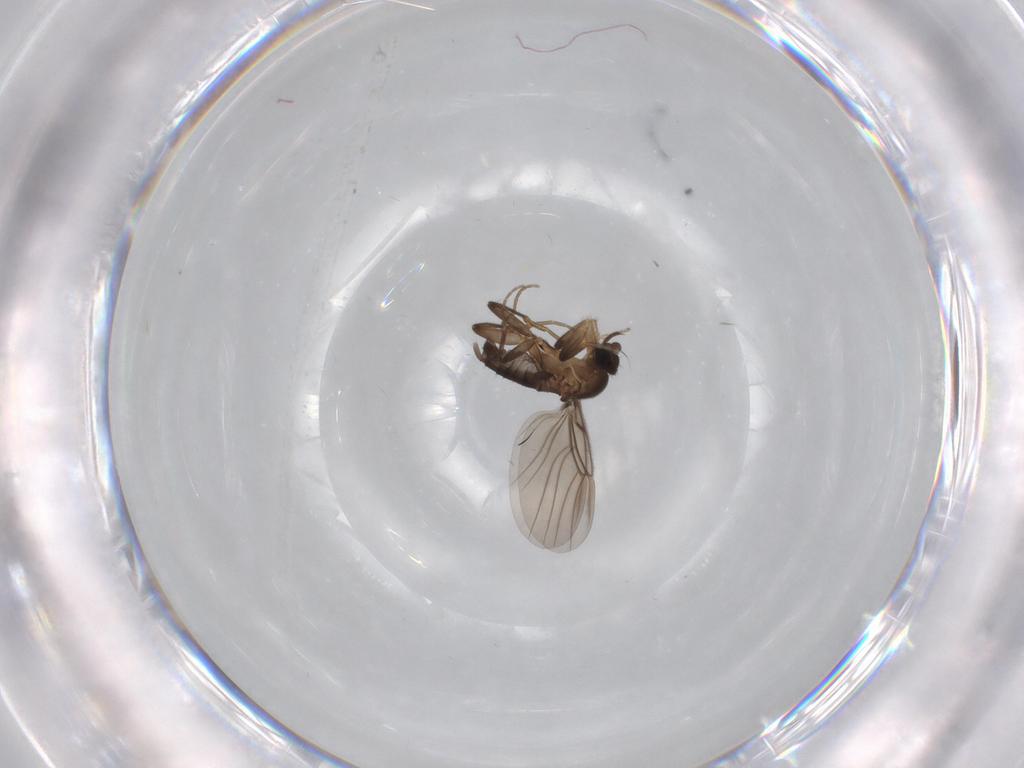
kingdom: Animalia
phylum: Arthropoda
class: Insecta
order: Diptera
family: Phoridae
